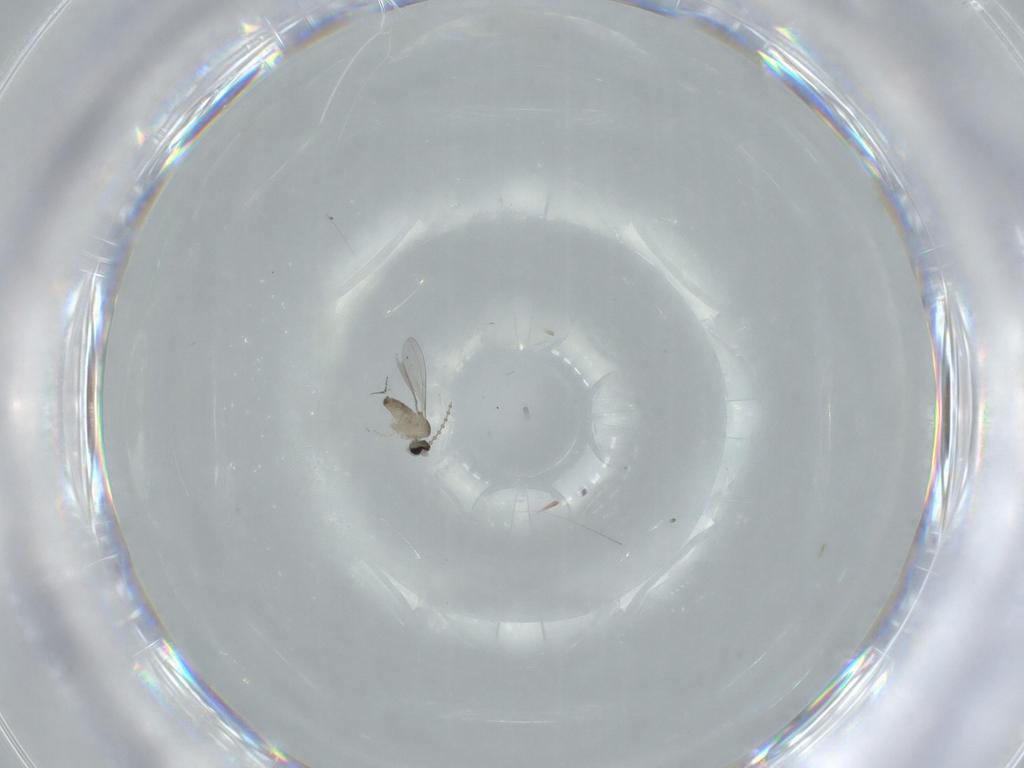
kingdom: Animalia
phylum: Arthropoda
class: Insecta
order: Diptera
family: Cecidomyiidae
